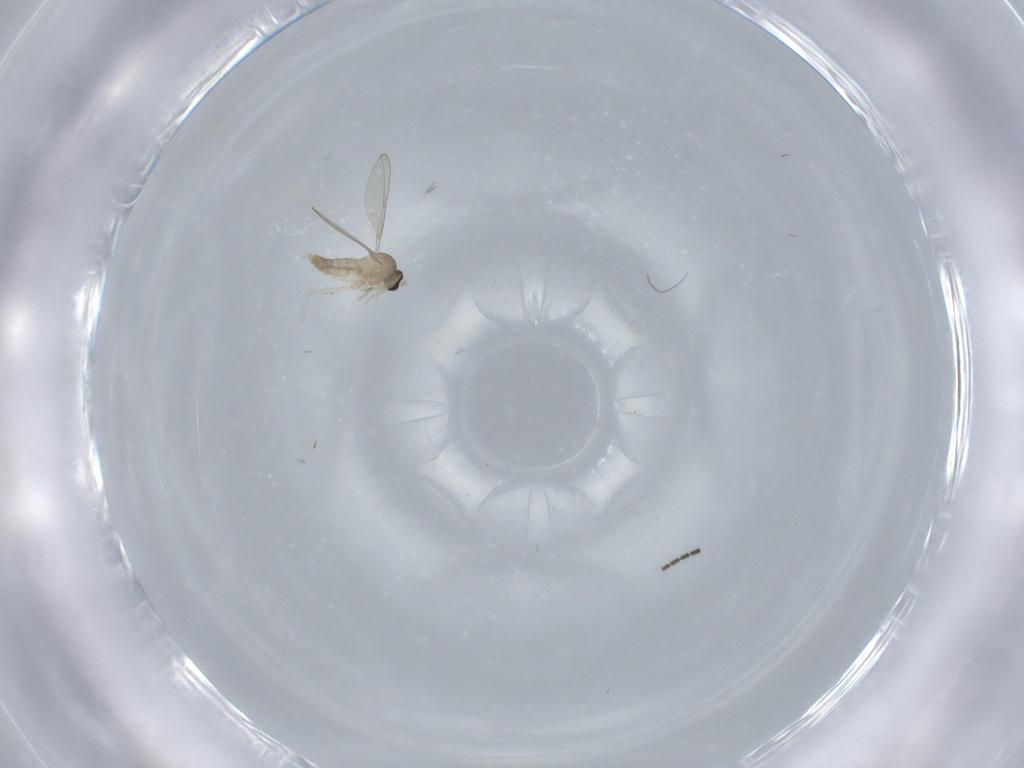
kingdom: Animalia
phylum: Arthropoda
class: Insecta
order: Diptera
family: Cecidomyiidae
